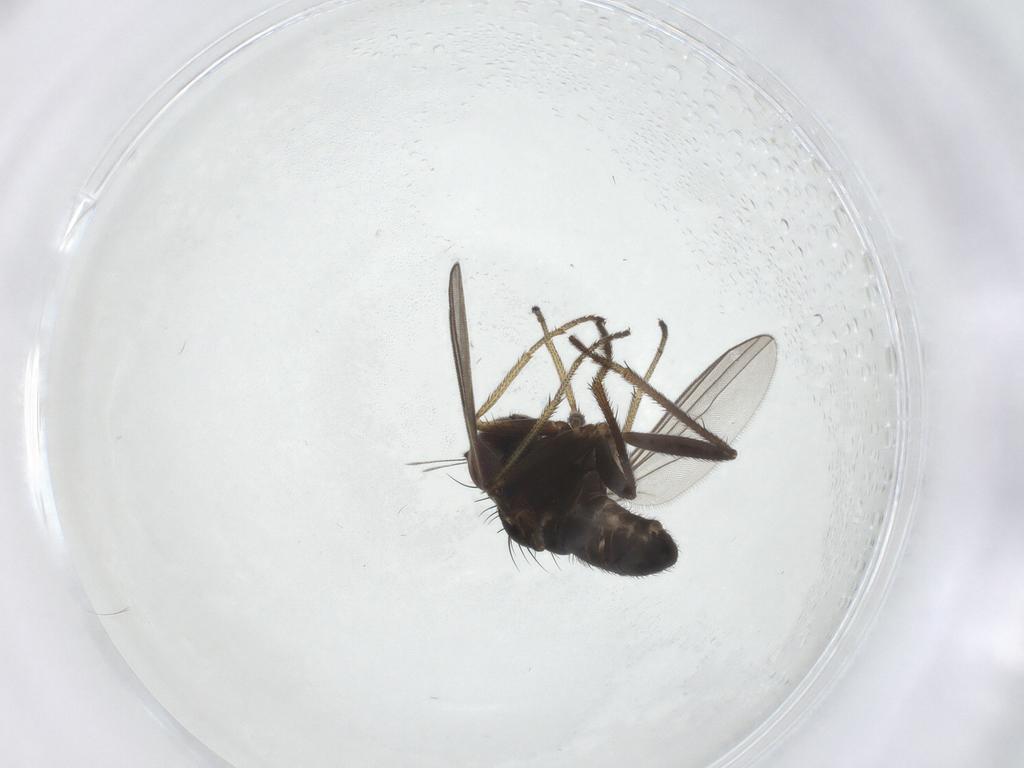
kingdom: Animalia
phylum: Arthropoda
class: Insecta
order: Diptera
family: Dolichopodidae
